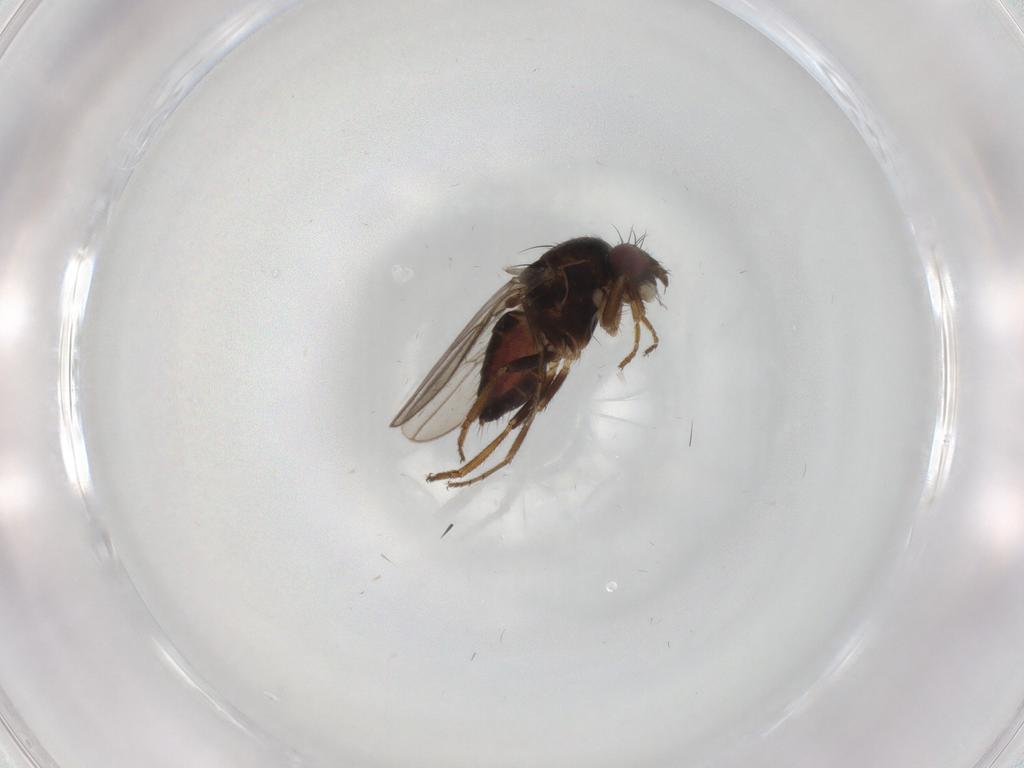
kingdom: Animalia
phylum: Arthropoda
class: Insecta
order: Diptera
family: Sphaeroceridae
